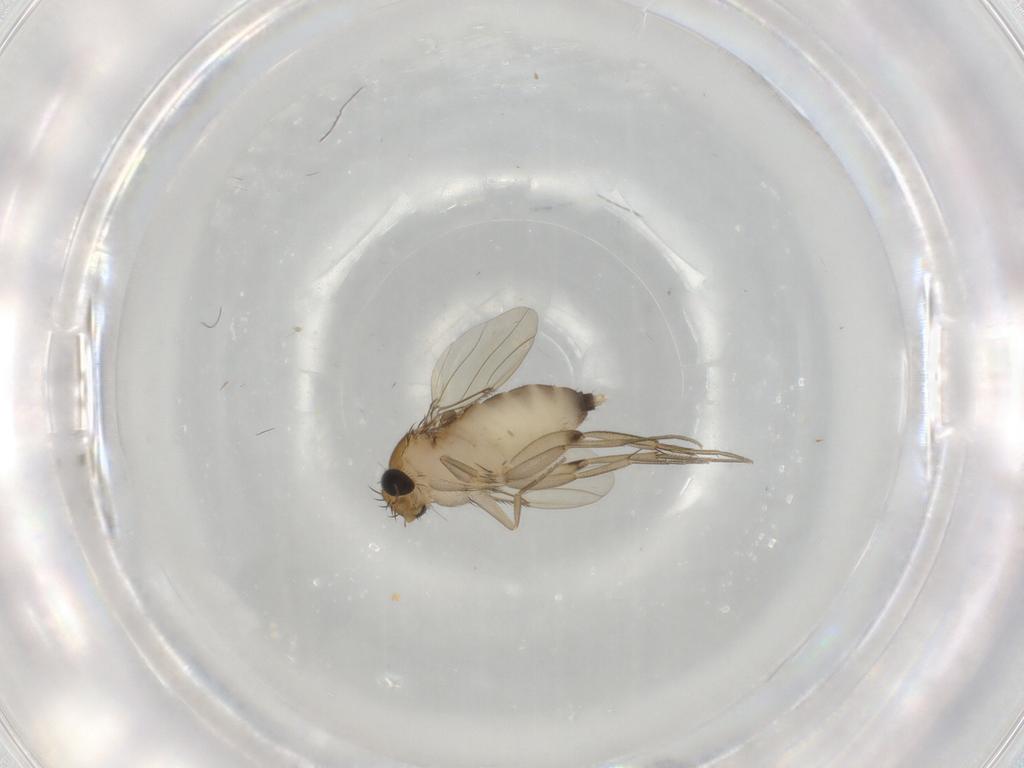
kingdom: Animalia
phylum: Arthropoda
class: Insecta
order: Diptera
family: Phoridae
